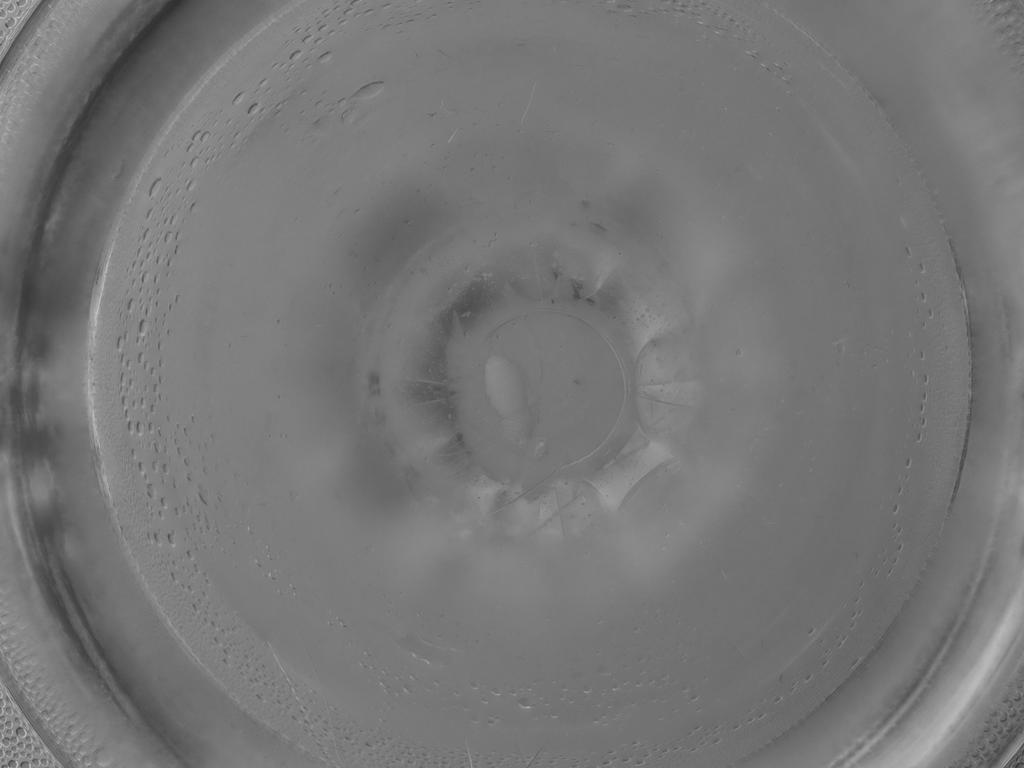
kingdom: Animalia
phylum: Arthropoda
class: Insecta
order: Diptera
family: Cecidomyiidae
